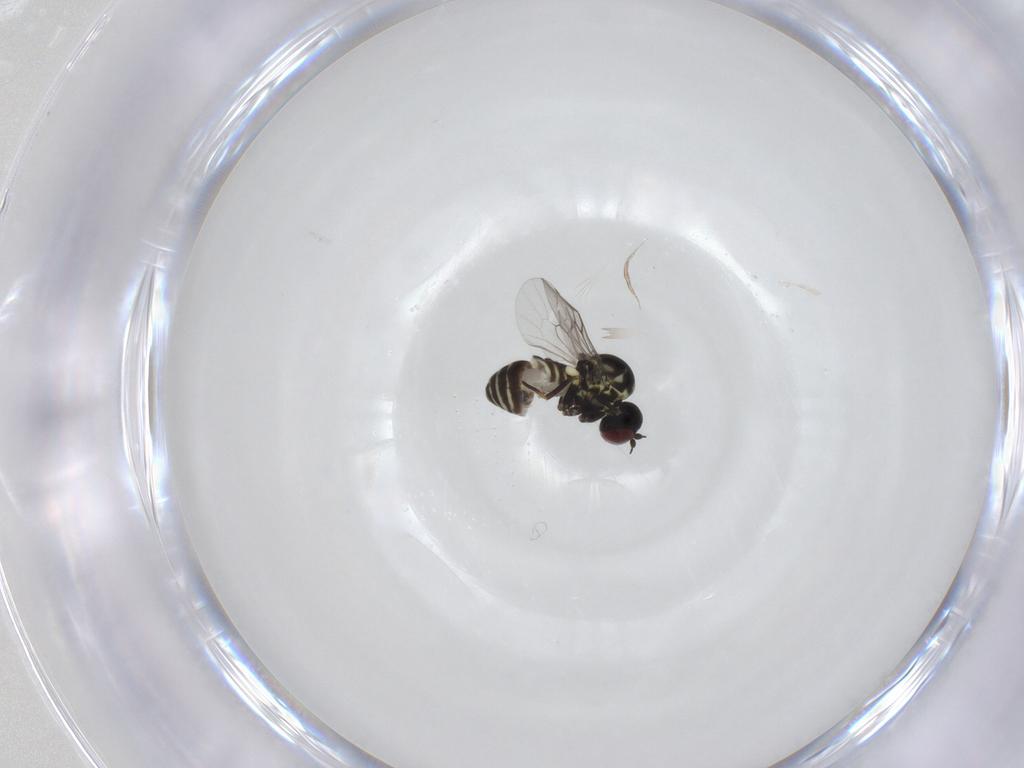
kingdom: Animalia
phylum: Arthropoda
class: Insecta
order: Diptera
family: Mythicomyiidae
